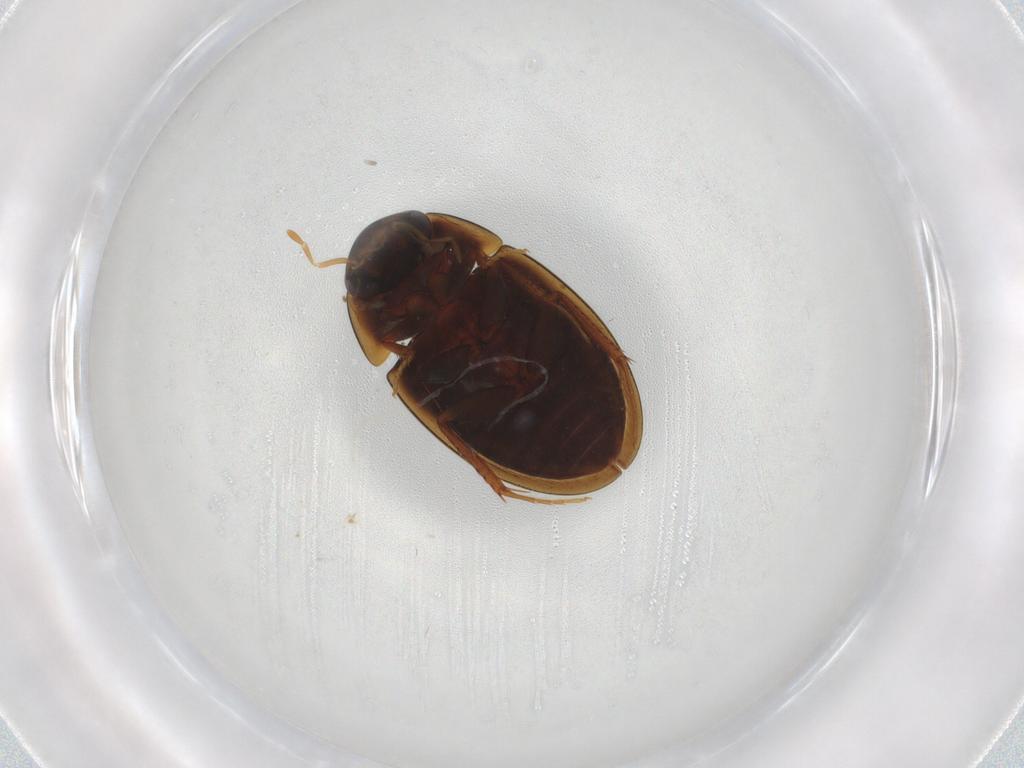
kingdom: Animalia
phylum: Arthropoda
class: Insecta
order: Coleoptera
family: Hydrophilidae
